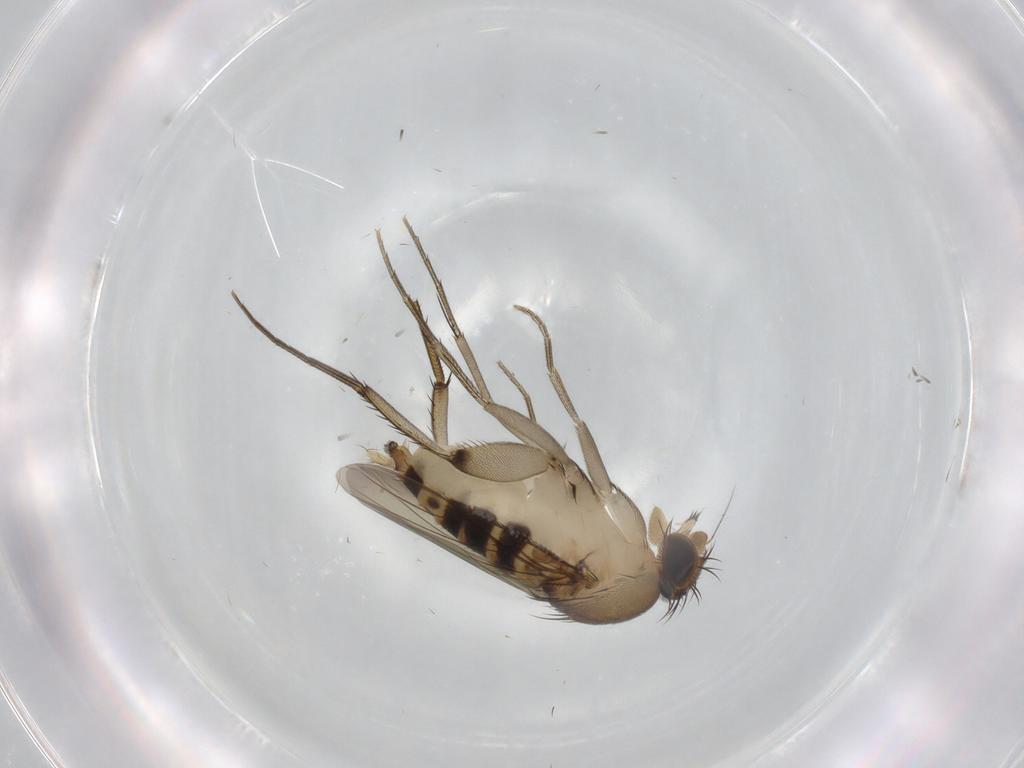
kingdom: Animalia
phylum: Arthropoda
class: Insecta
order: Diptera
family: Phoridae
